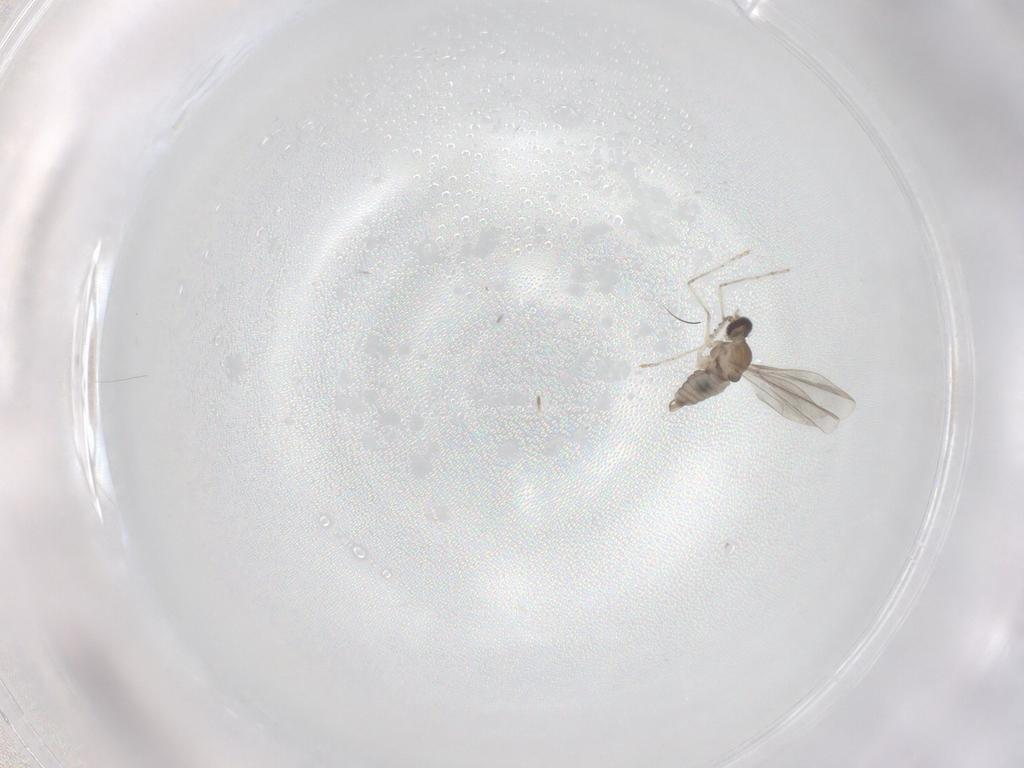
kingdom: Animalia
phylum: Arthropoda
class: Insecta
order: Diptera
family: Cecidomyiidae
